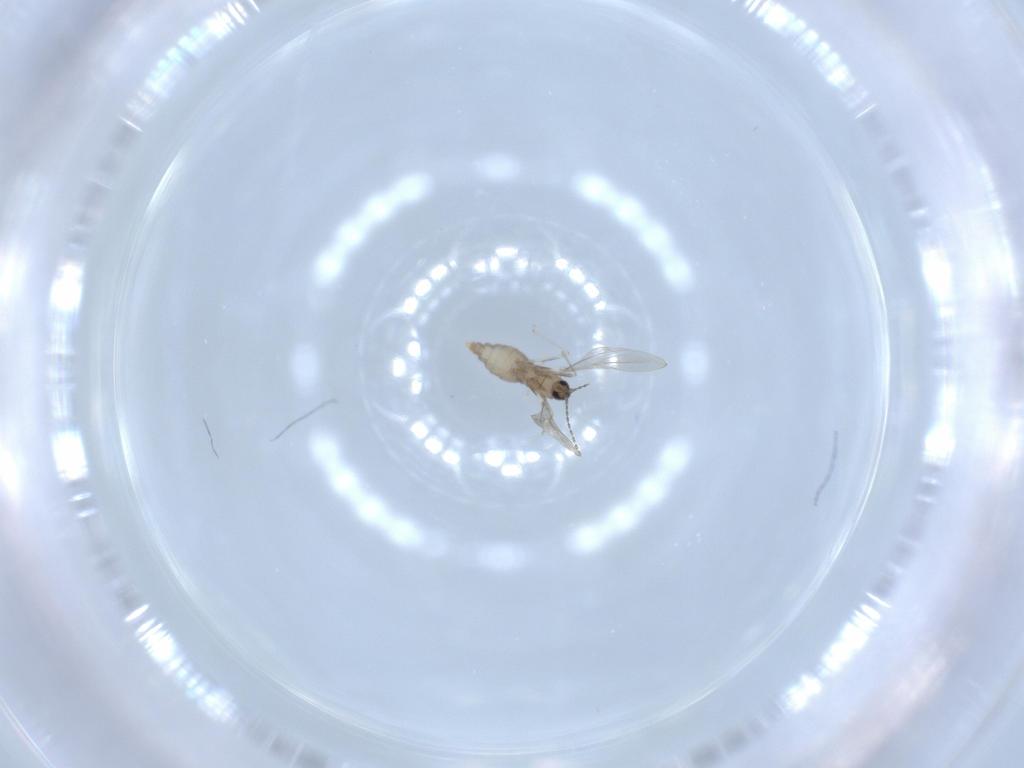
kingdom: Animalia
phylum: Arthropoda
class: Insecta
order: Diptera
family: Cecidomyiidae
